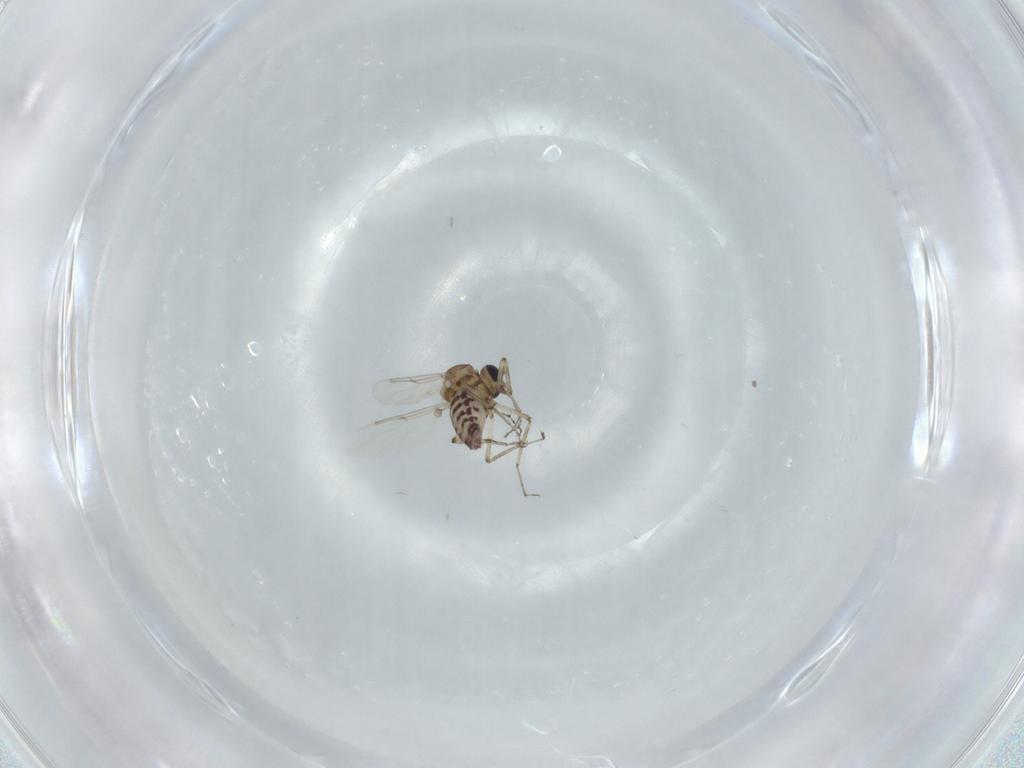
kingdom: Animalia
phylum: Arthropoda
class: Insecta
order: Diptera
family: Ceratopogonidae
